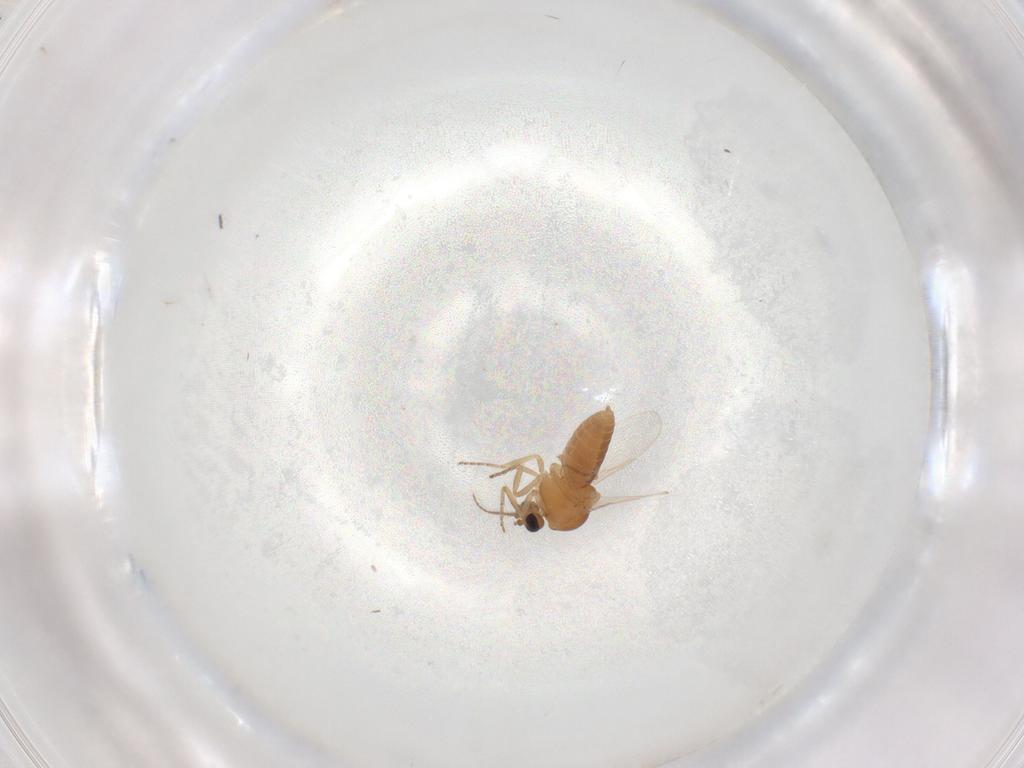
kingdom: Animalia
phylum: Arthropoda
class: Insecta
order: Diptera
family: Ceratopogonidae
